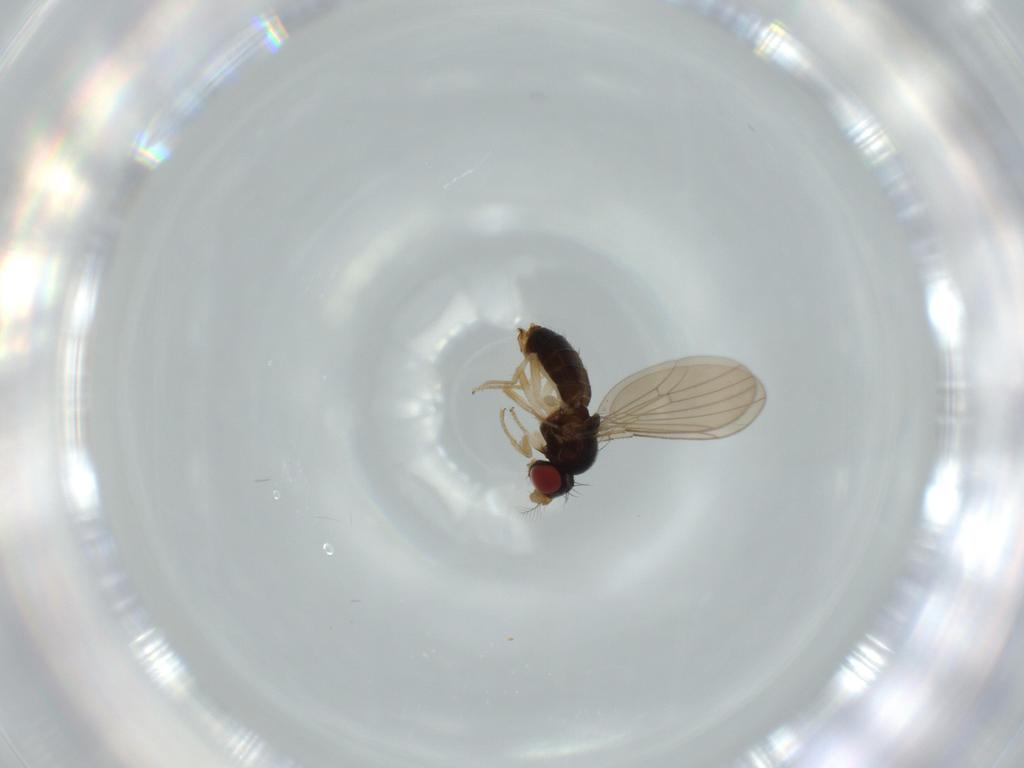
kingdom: Animalia
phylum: Arthropoda
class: Insecta
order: Diptera
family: Drosophilidae
